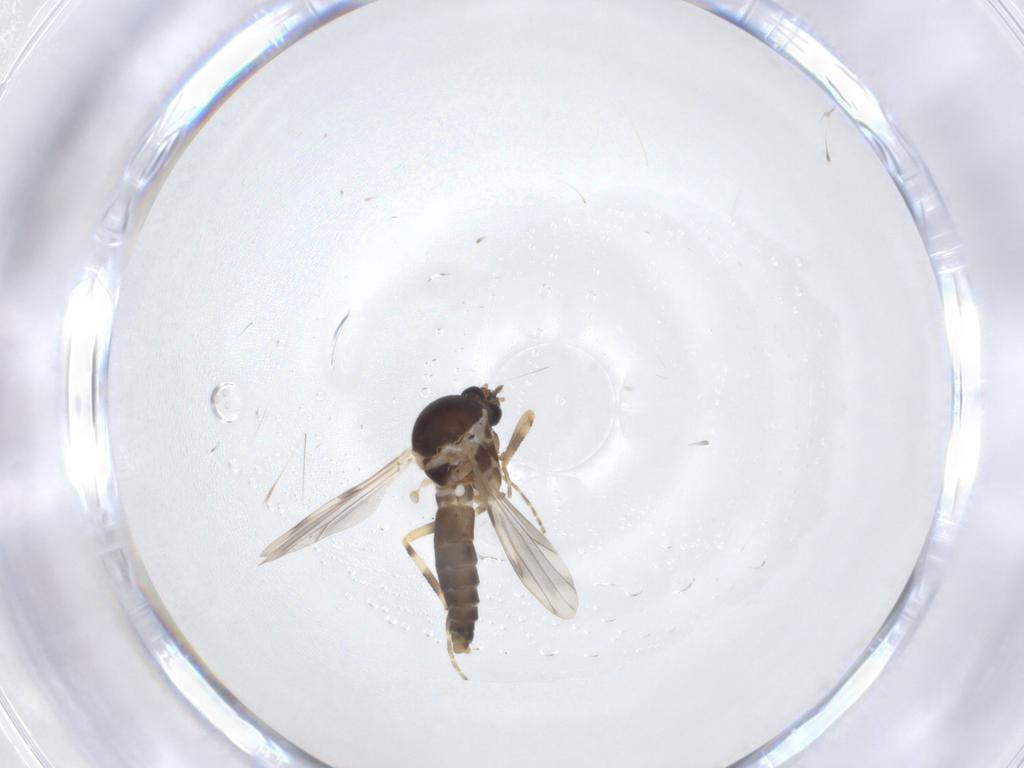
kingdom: Animalia
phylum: Arthropoda
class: Insecta
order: Diptera
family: Ceratopogonidae
